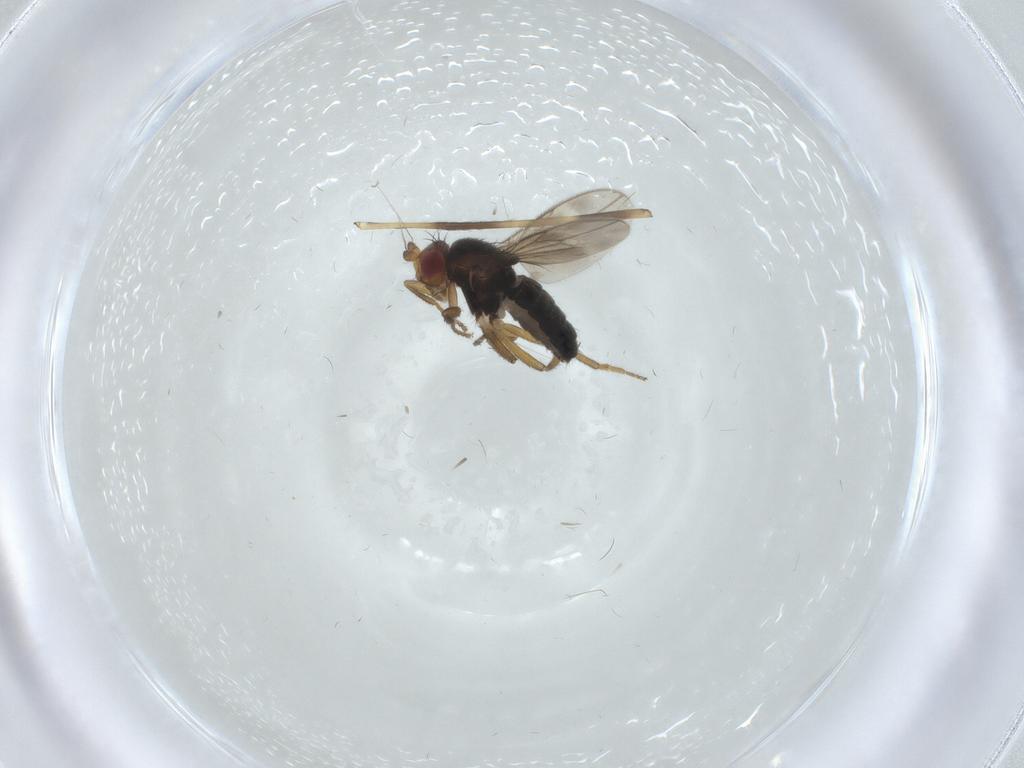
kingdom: Animalia
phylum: Arthropoda
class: Insecta
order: Diptera
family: Sphaeroceridae
